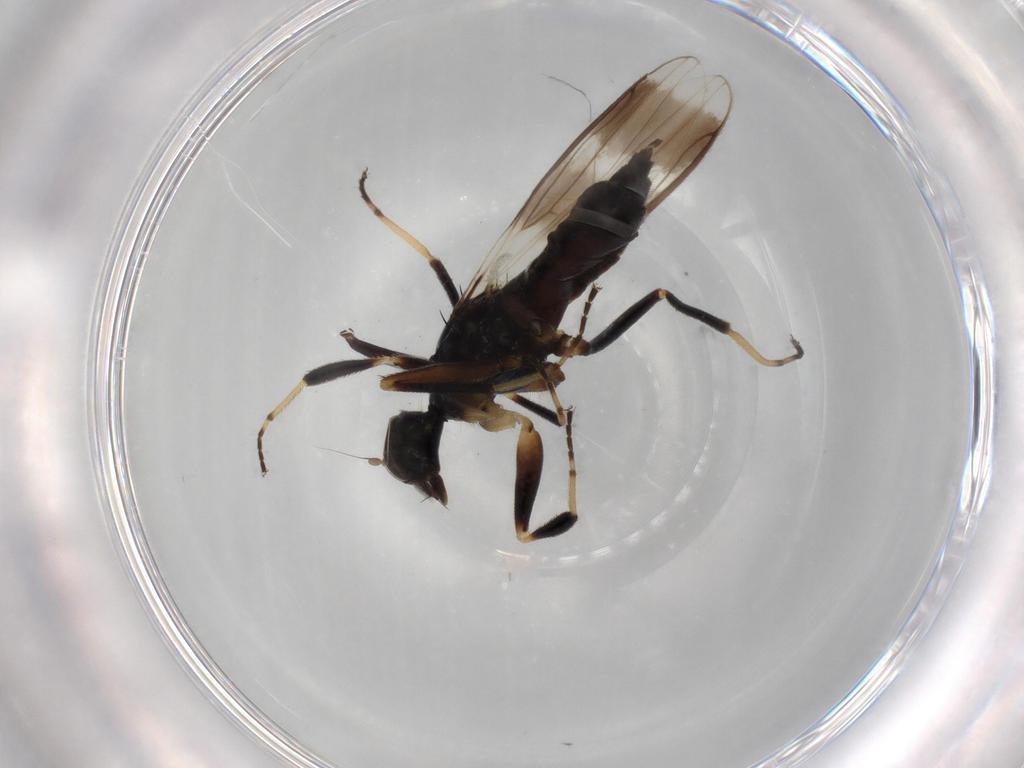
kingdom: Animalia
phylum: Arthropoda
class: Insecta
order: Diptera
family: Hybotidae
